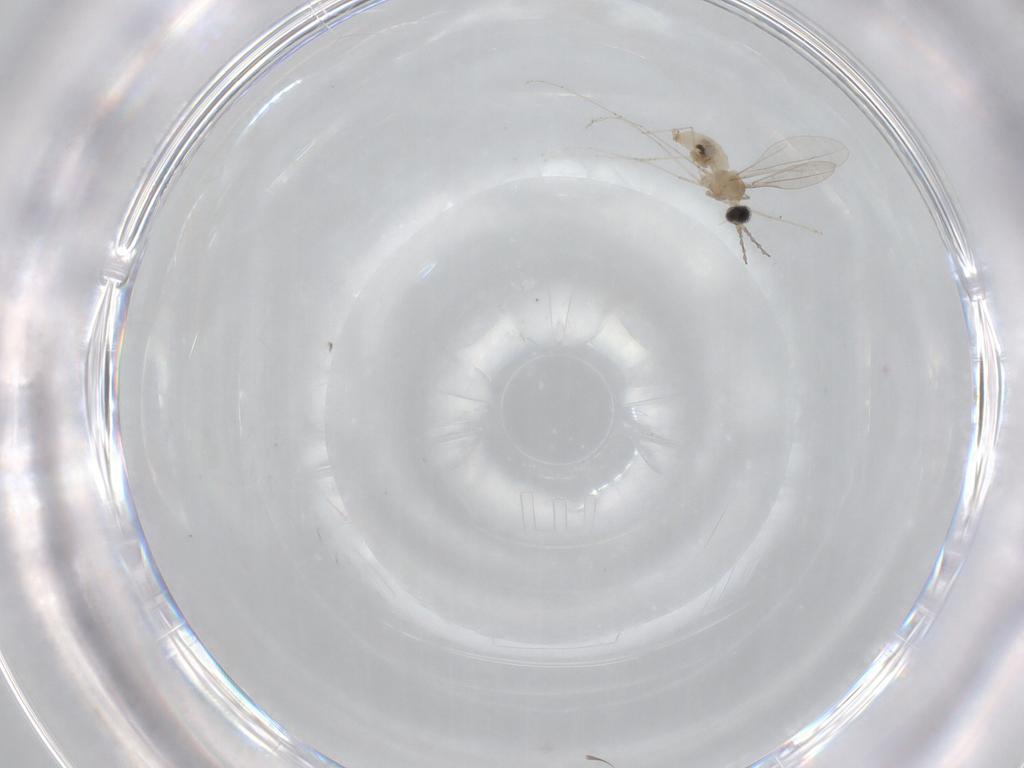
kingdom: Animalia
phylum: Arthropoda
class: Insecta
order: Diptera
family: Cecidomyiidae
